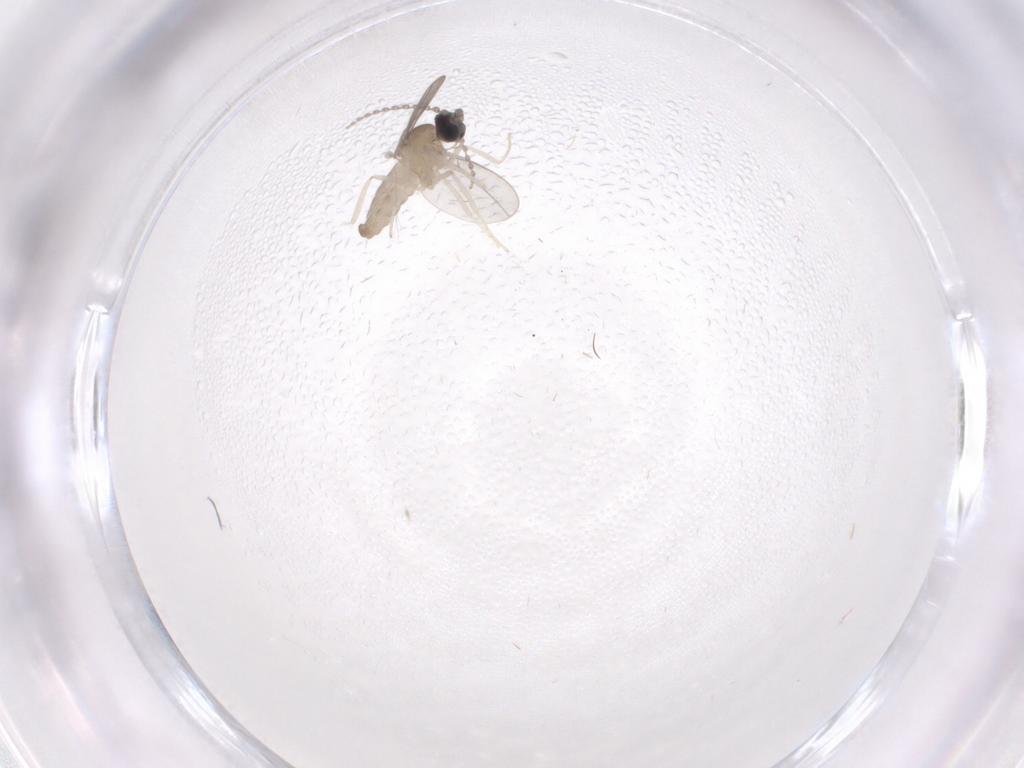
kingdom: Animalia
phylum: Arthropoda
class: Insecta
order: Diptera
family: Cecidomyiidae
